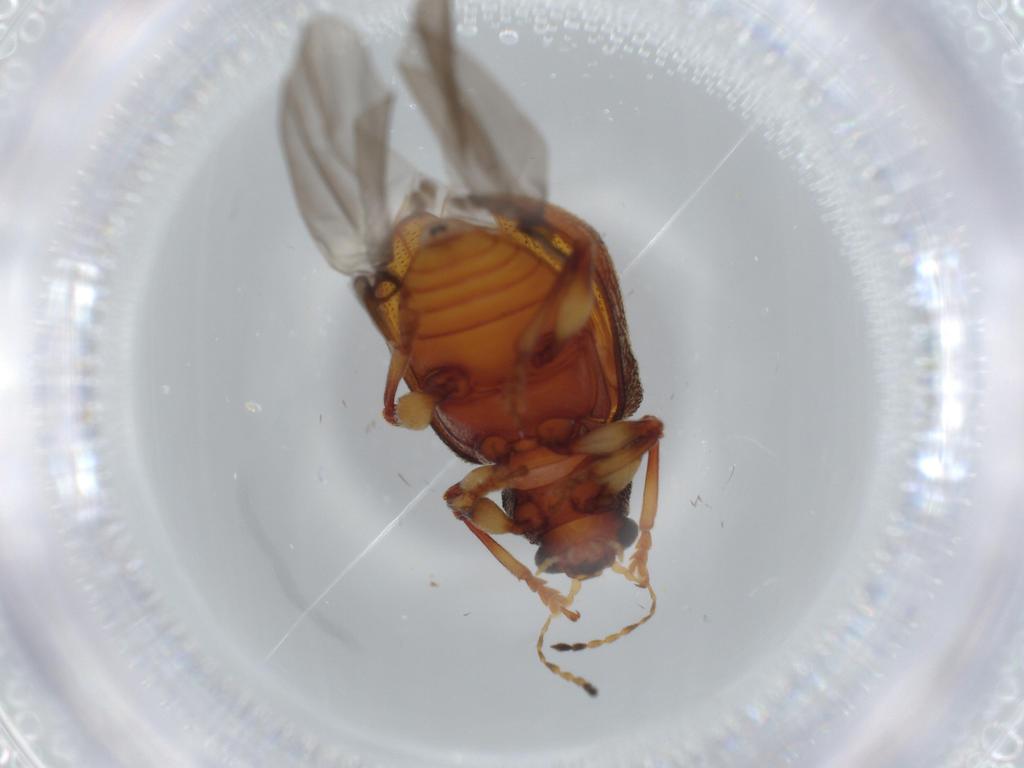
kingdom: Animalia
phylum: Arthropoda
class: Insecta
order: Coleoptera
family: Chrysomelidae
